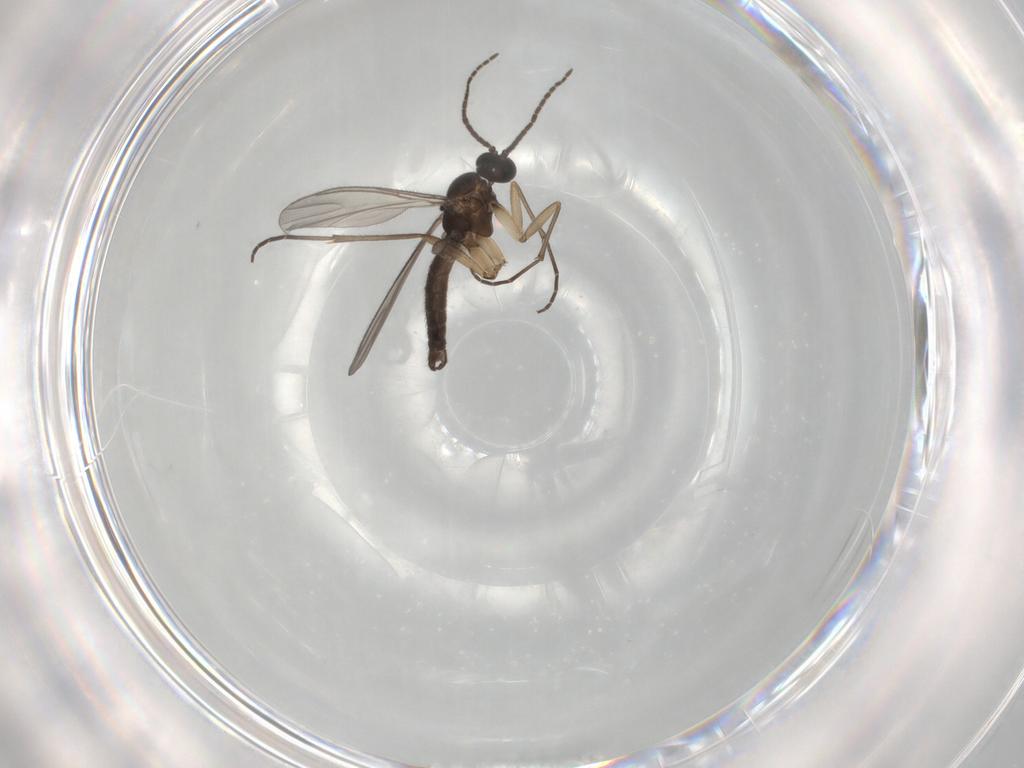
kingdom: Animalia
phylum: Arthropoda
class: Insecta
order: Diptera
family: Sciaridae
